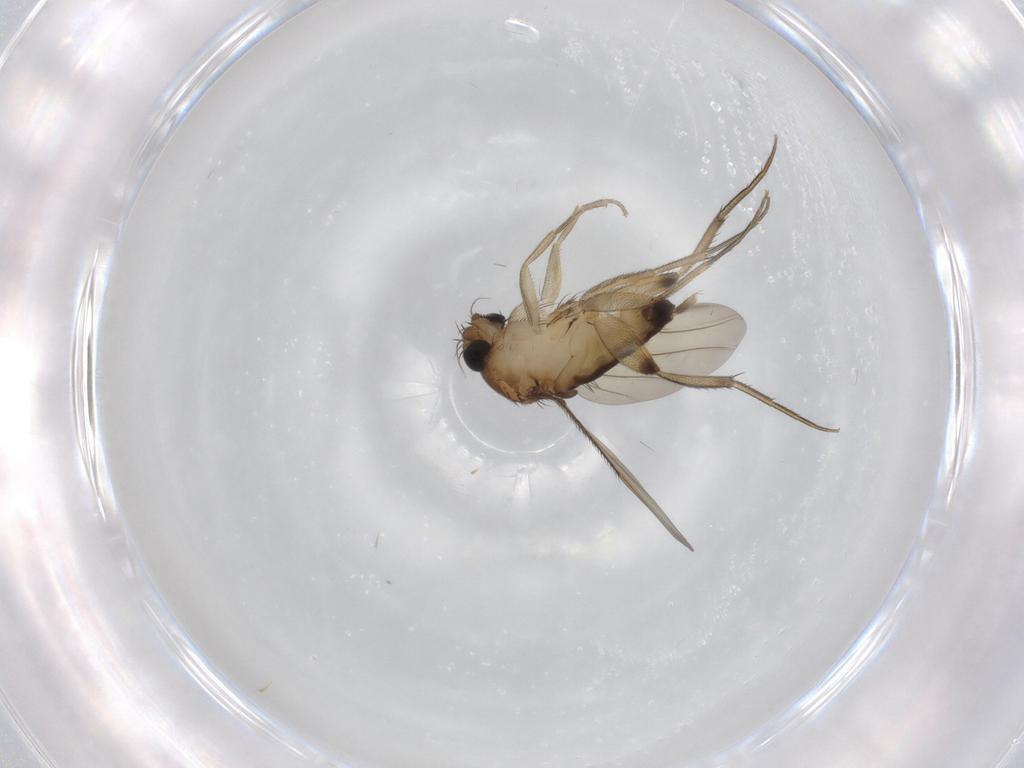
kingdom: Animalia
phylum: Arthropoda
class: Insecta
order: Diptera
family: Phoridae
